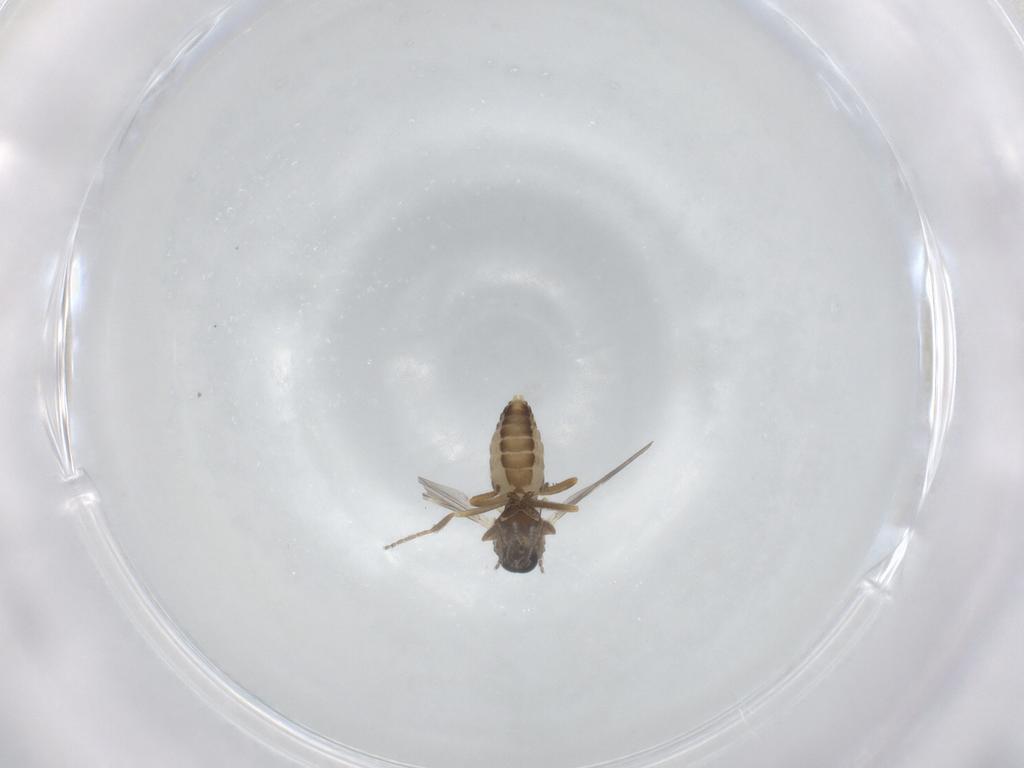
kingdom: Animalia
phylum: Arthropoda
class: Insecta
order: Diptera
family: Ceratopogonidae
